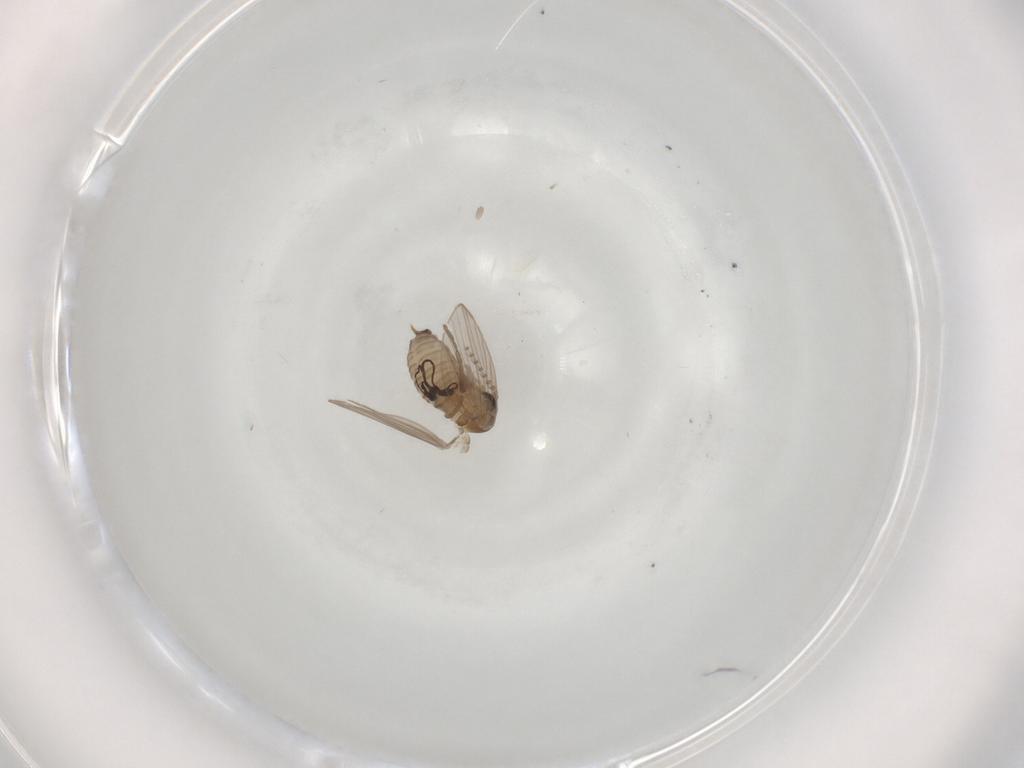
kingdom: Animalia
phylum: Arthropoda
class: Insecta
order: Diptera
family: Psychodidae
